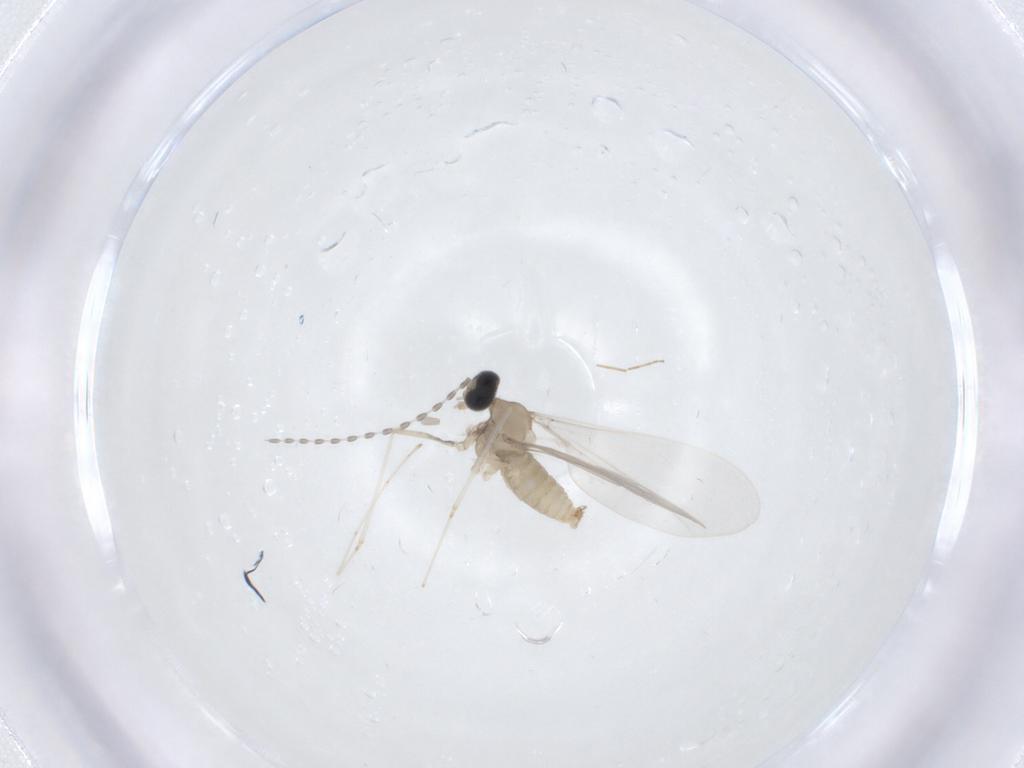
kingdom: Animalia
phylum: Arthropoda
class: Insecta
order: Diptera
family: Cecidomyiidae
